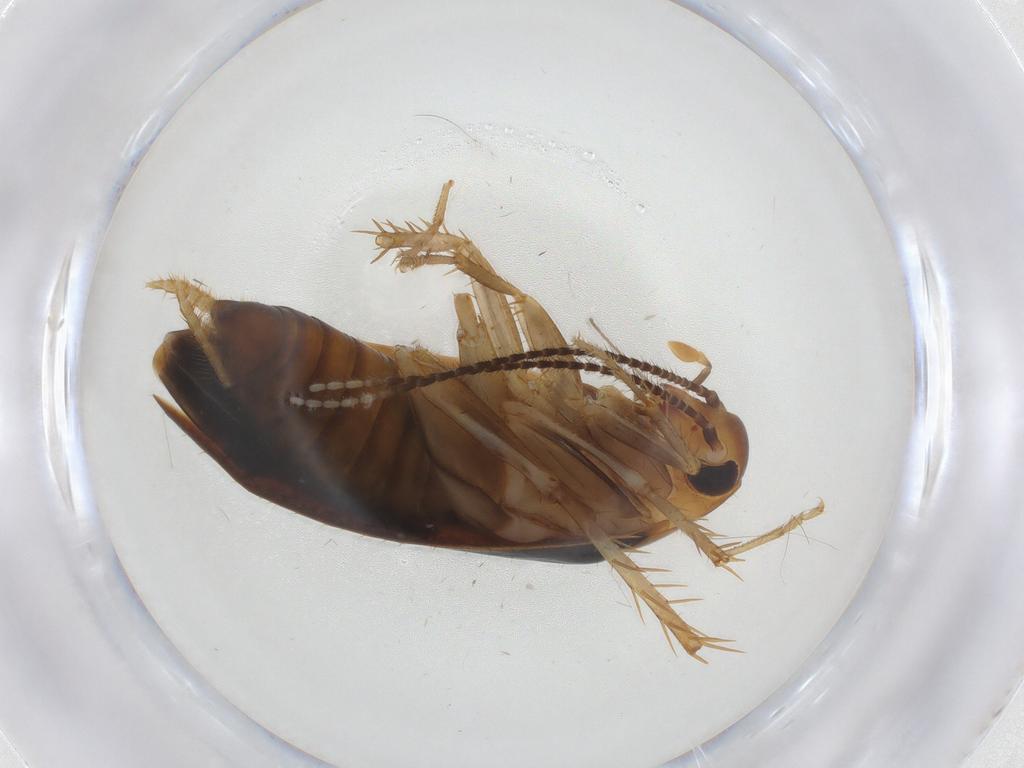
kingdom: Animalia
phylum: Arthropoda
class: Insecta
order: Blattodea
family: Tryonicidae
